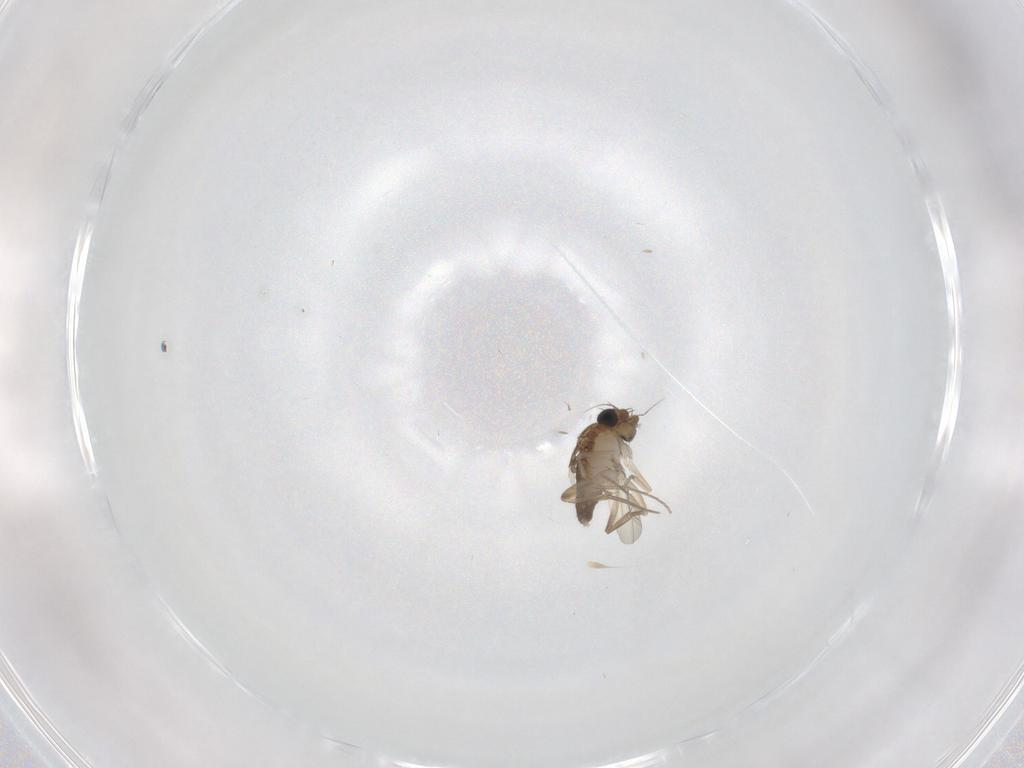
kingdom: Animalia
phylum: Arthropoda
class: Insecta
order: Diptera
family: Phoridae
